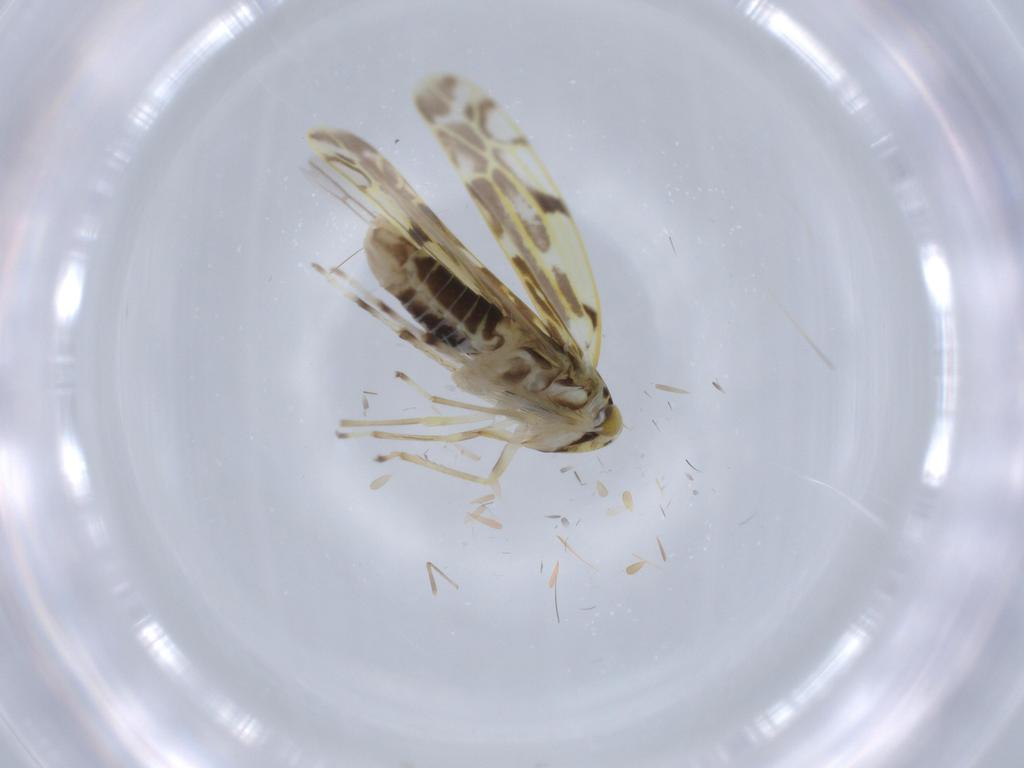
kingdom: Animalia
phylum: Arthropoda
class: Insecta
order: Hemiptera
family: Cicadellidae
